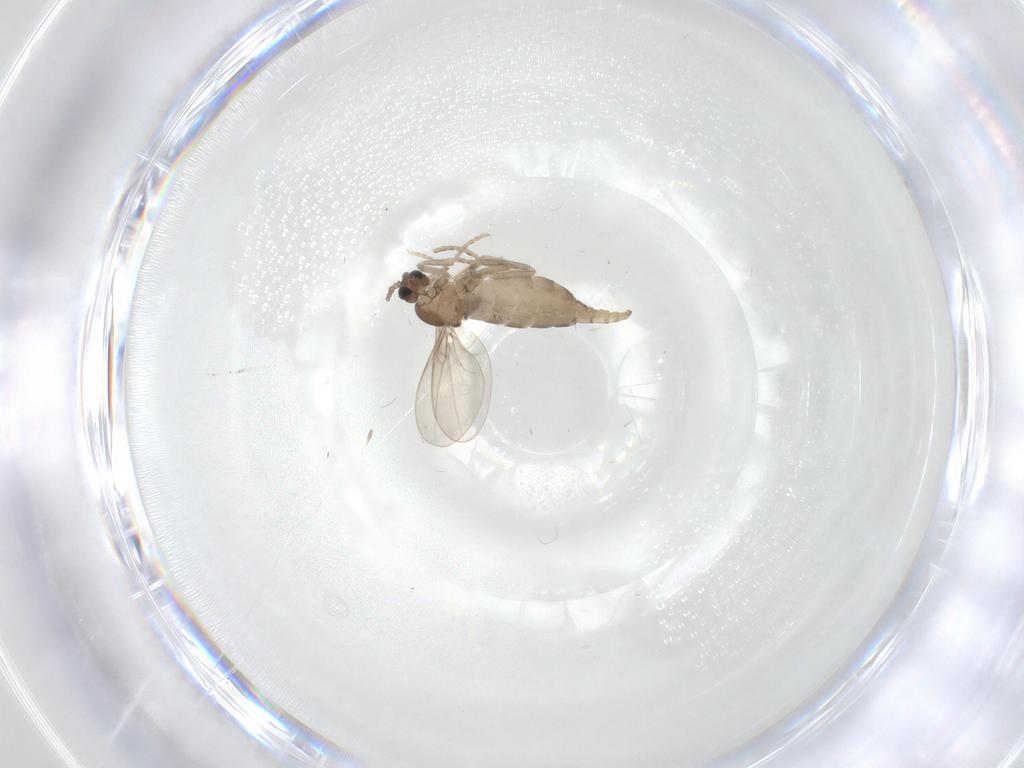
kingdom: Animalia
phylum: Arthropoda
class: Insecta
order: Diptera
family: Cecidomyiidae
